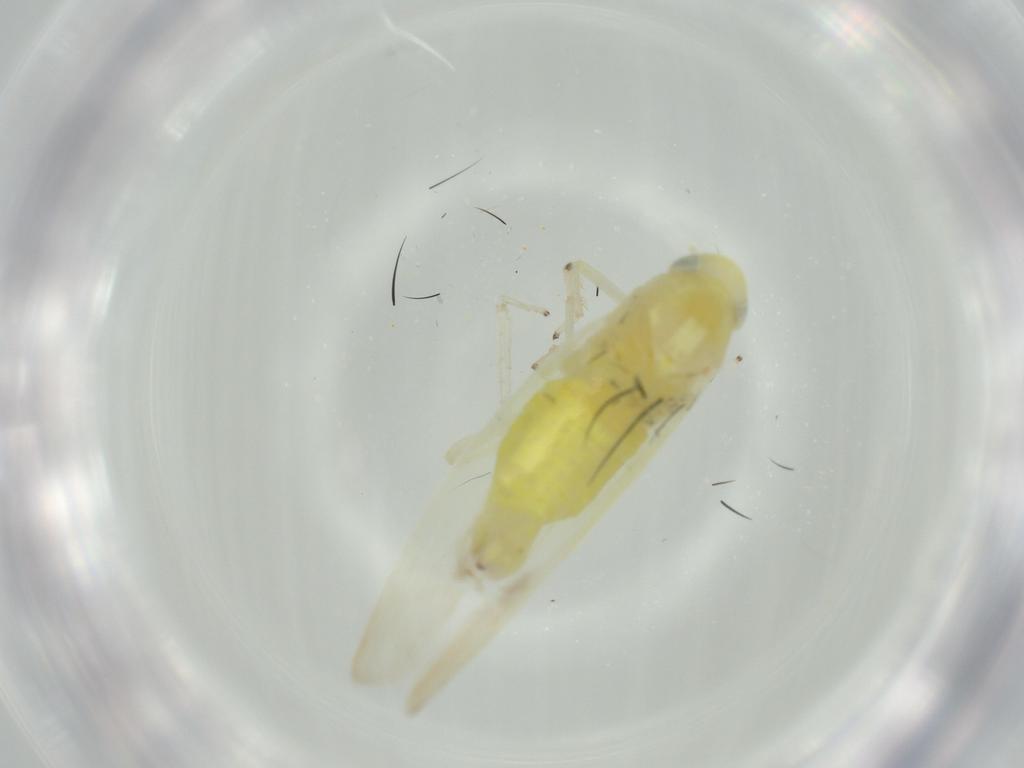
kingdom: Animalia
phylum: Arthropoda
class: Insecta
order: Hemiptera
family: Cicadellidae
